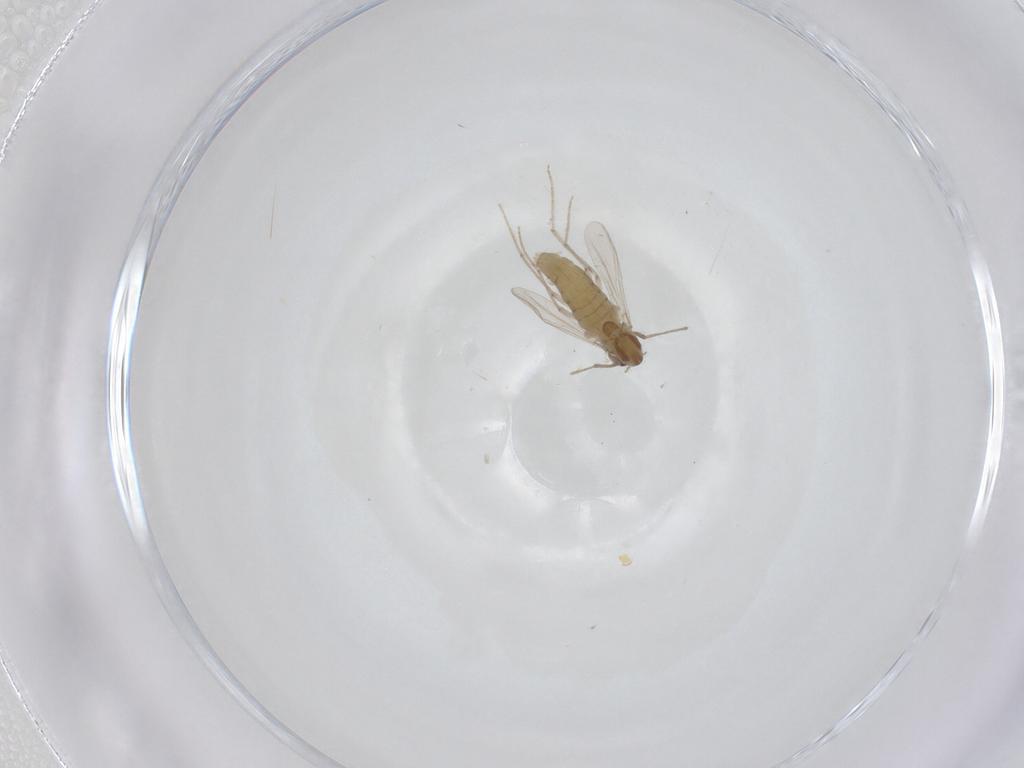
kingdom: Animalia
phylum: Arthropoda
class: Insecta
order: Diptera
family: Chironomidae
